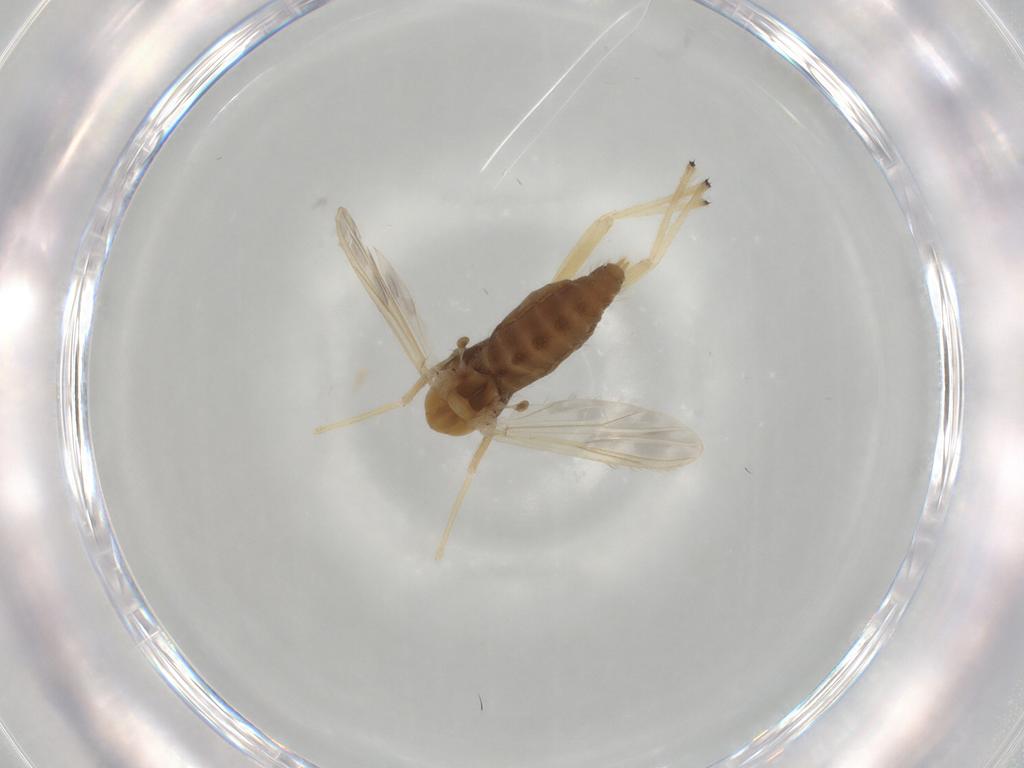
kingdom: Animalia
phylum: Arthropoda
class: Insecta
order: Diptera
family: Chironomidae
